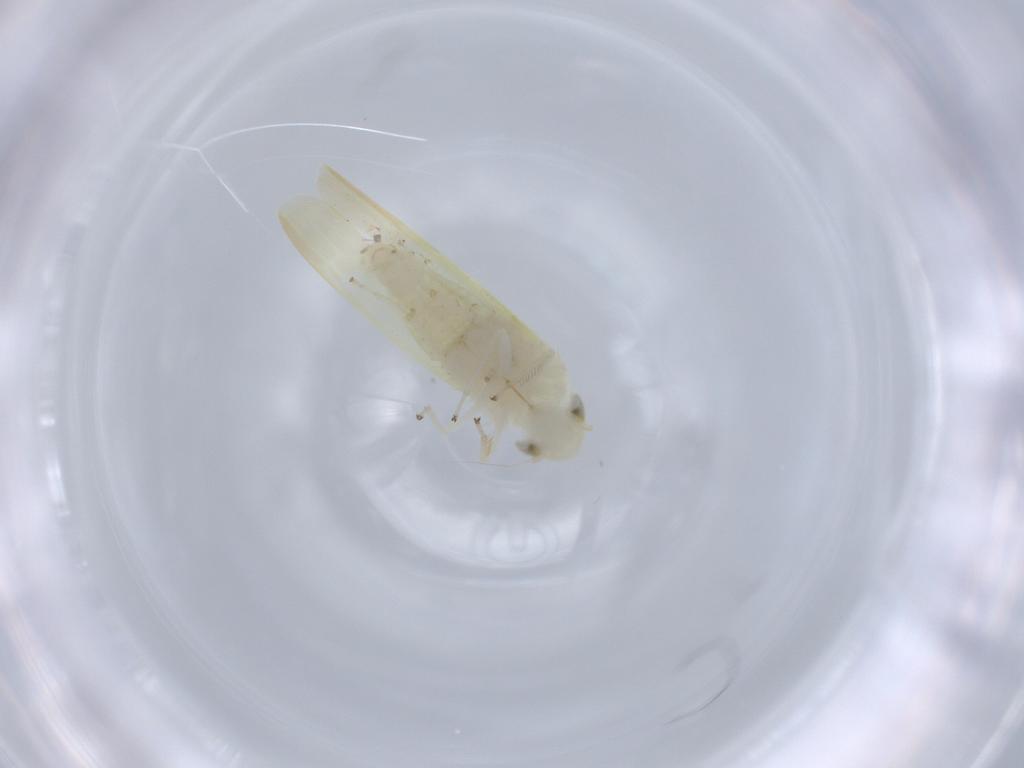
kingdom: Animalia
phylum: Arthropoda
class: Insecta
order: Hemiptera
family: Cicadellidae
